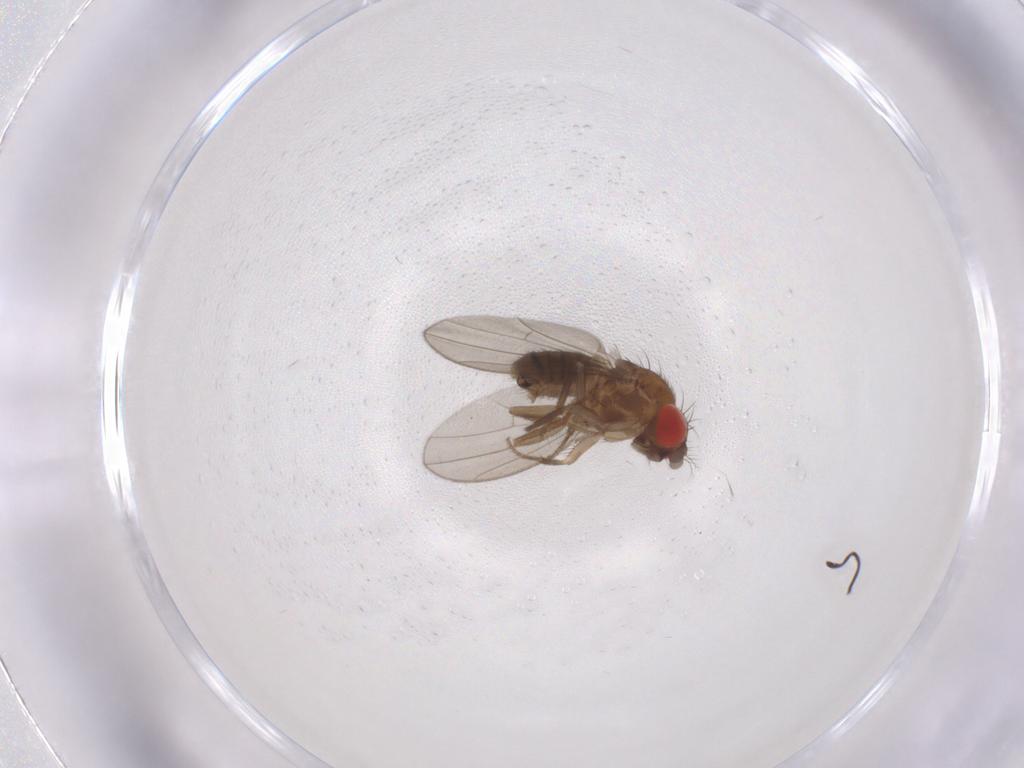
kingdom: Animalia
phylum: Arthropoda
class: Insecta
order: Diptera
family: Drosophilidae
